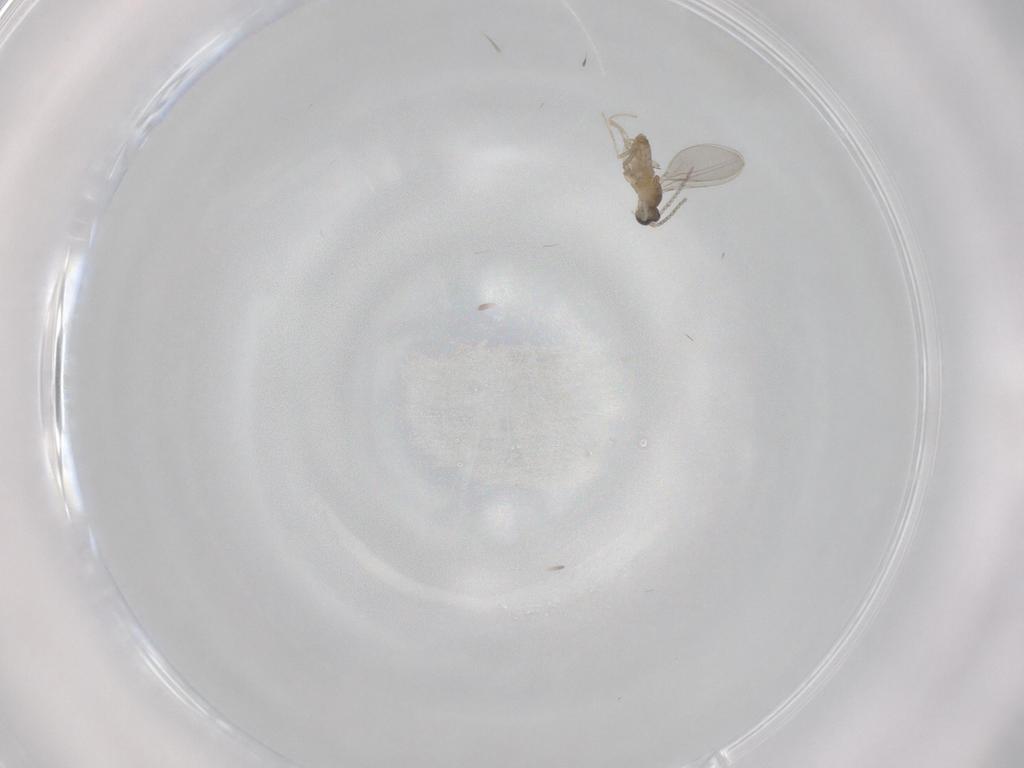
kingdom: Animalia
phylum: Arthropoda
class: Insecta
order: Diptera
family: Cecidomyiidae
